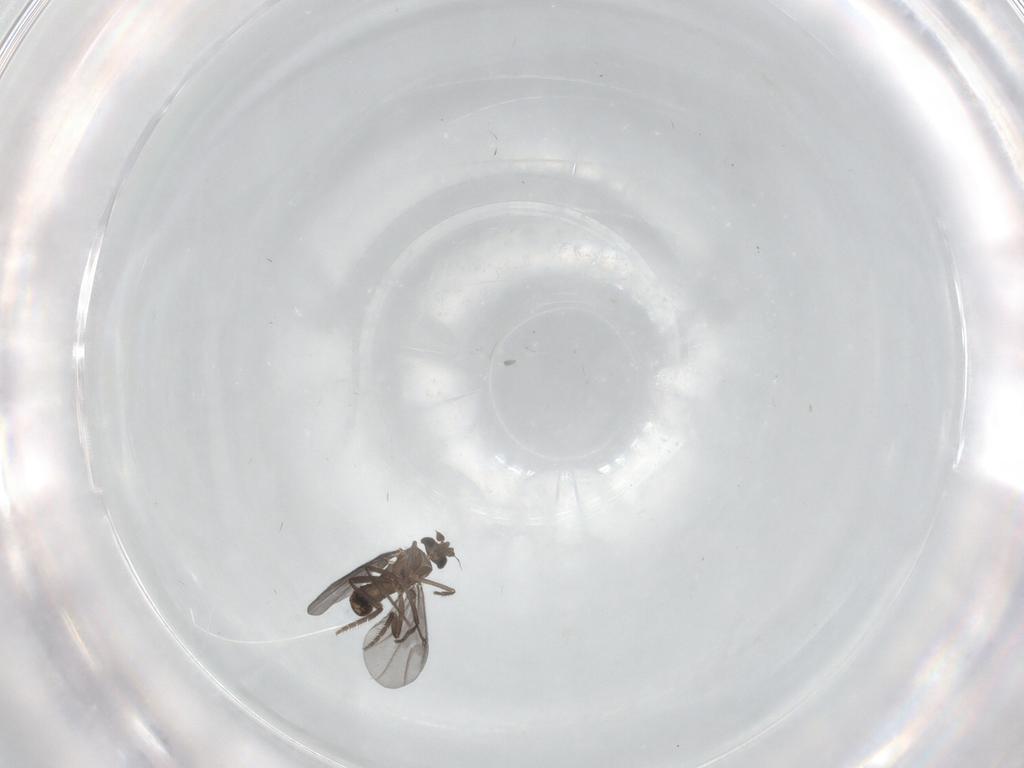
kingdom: Animalia
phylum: Arthropoda
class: Insecta
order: Diptera
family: Phoridae
